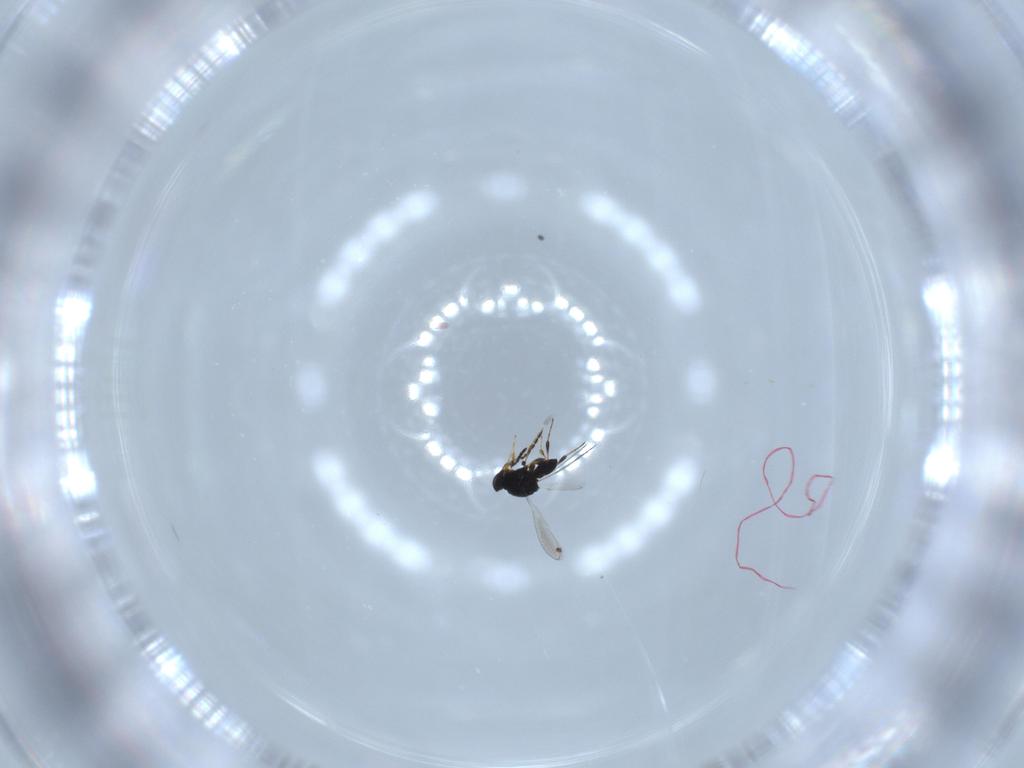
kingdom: Animalia
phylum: Arthropoda
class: Insecta
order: Hymenoptera
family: Platygastridae
